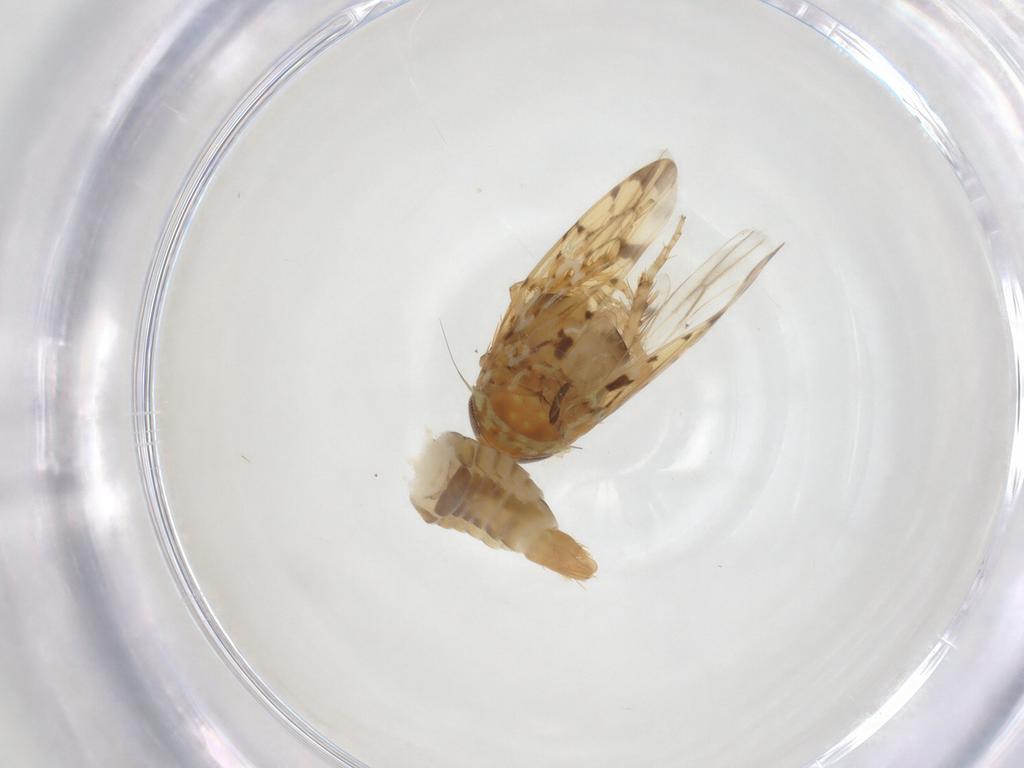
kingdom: Animalia
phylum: Arthropoda
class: Insecta
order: Hemiptera
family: Cicadellidae
